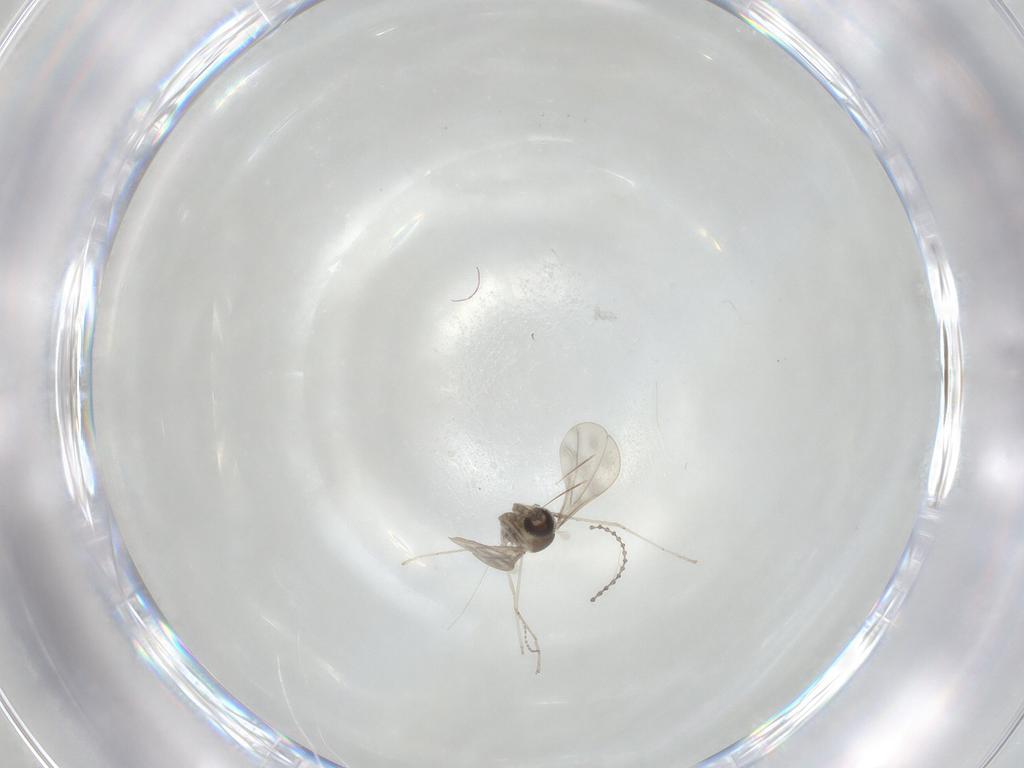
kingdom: Animalia
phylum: Arthropoda
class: Insecta
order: Diptera
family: Cecidomyiidae
